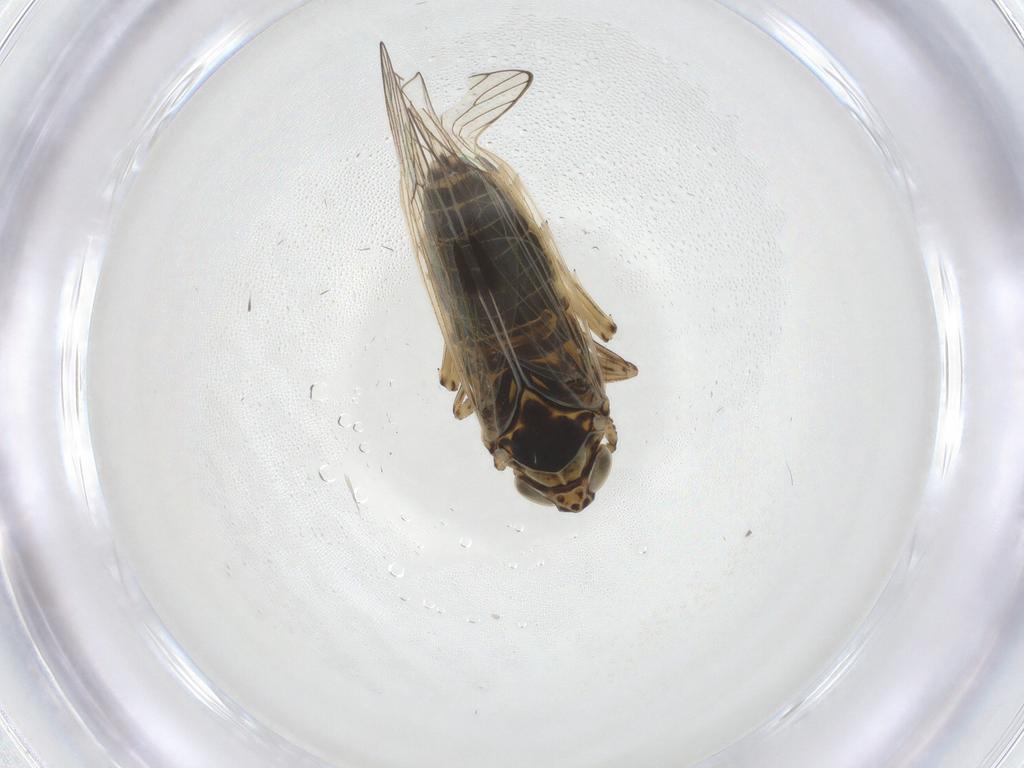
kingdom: Animalia
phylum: Arthropoda
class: Insecta
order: Hemiptera
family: Delphacidae
